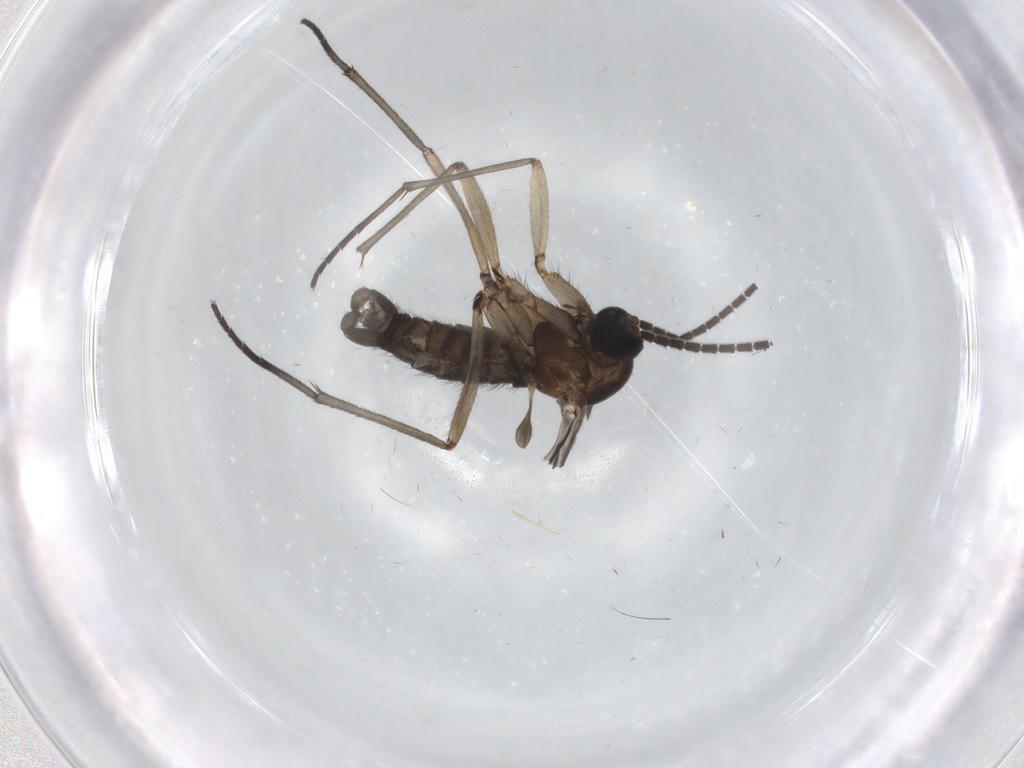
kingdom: Animalia
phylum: Arthropoda
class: Insecta
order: Diptera
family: Sciaridae
